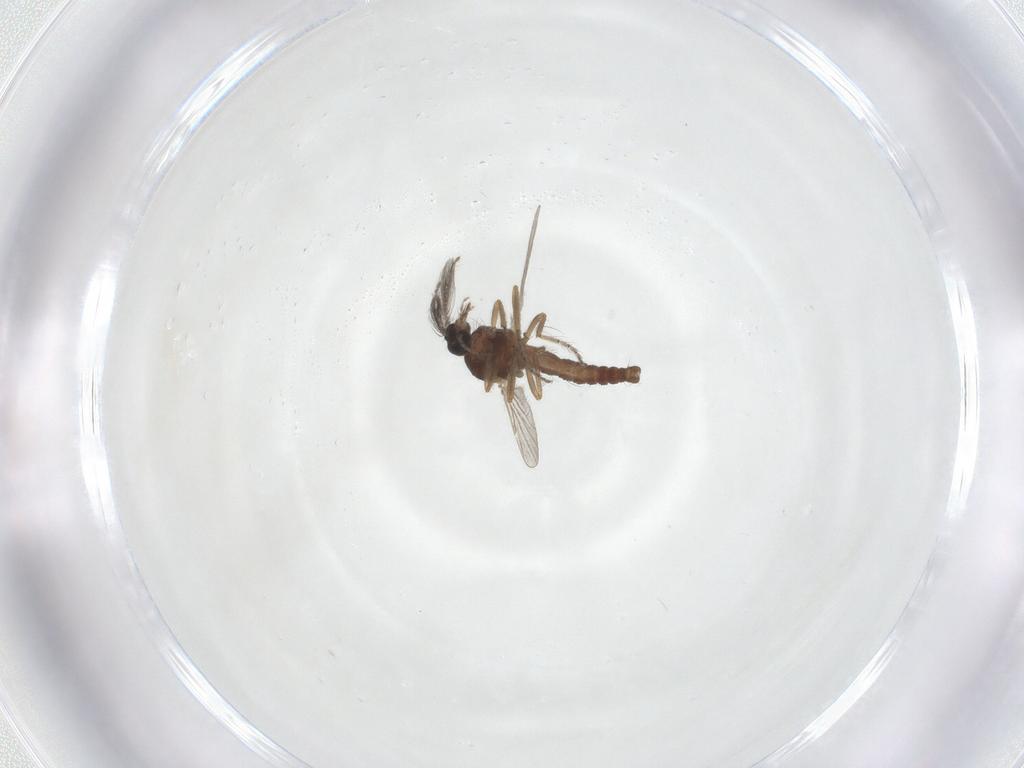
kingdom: Animalia
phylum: Arthropoda
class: Insecta
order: Diptera
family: Ceratopogonidae
